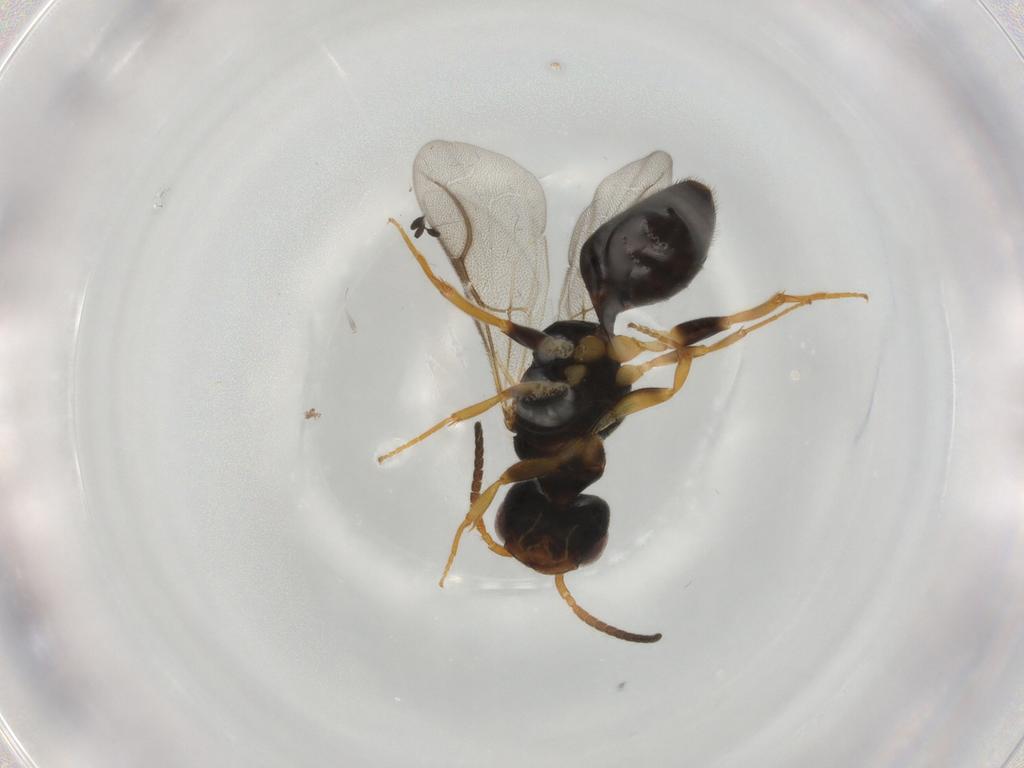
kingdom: Animalia
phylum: Arthropoda
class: Insecta
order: Hymenoptera
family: Bethylidae
